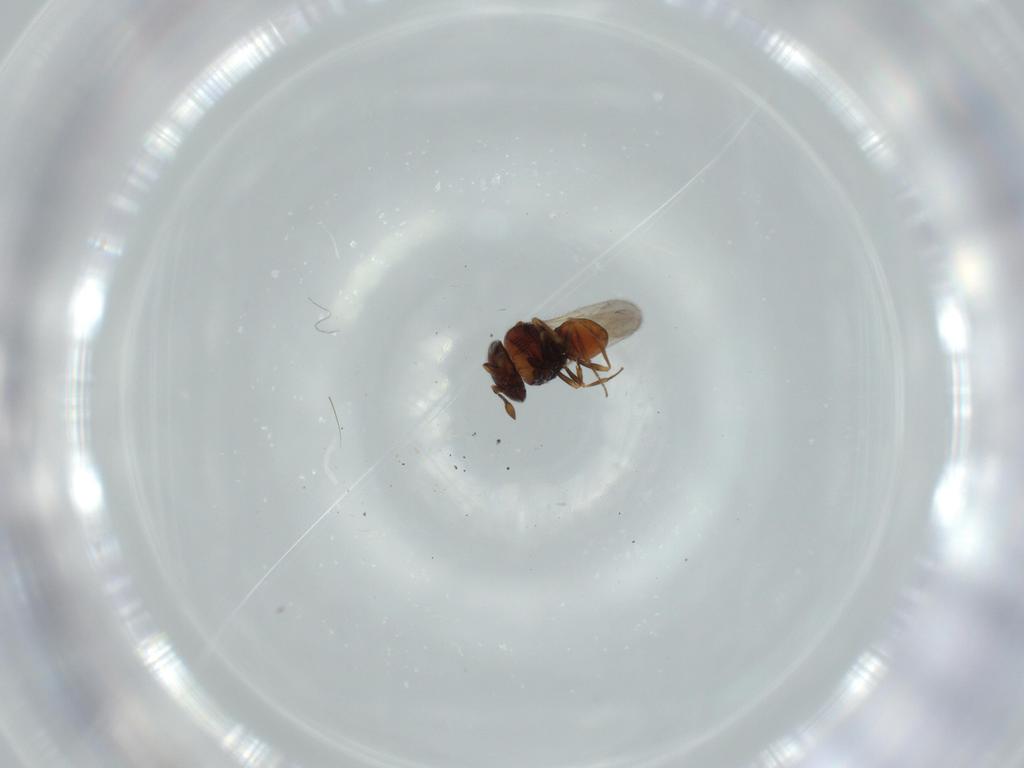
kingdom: Animalia
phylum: Arthropoda
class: Insecta
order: Hymenoptera
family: Scelionidae
